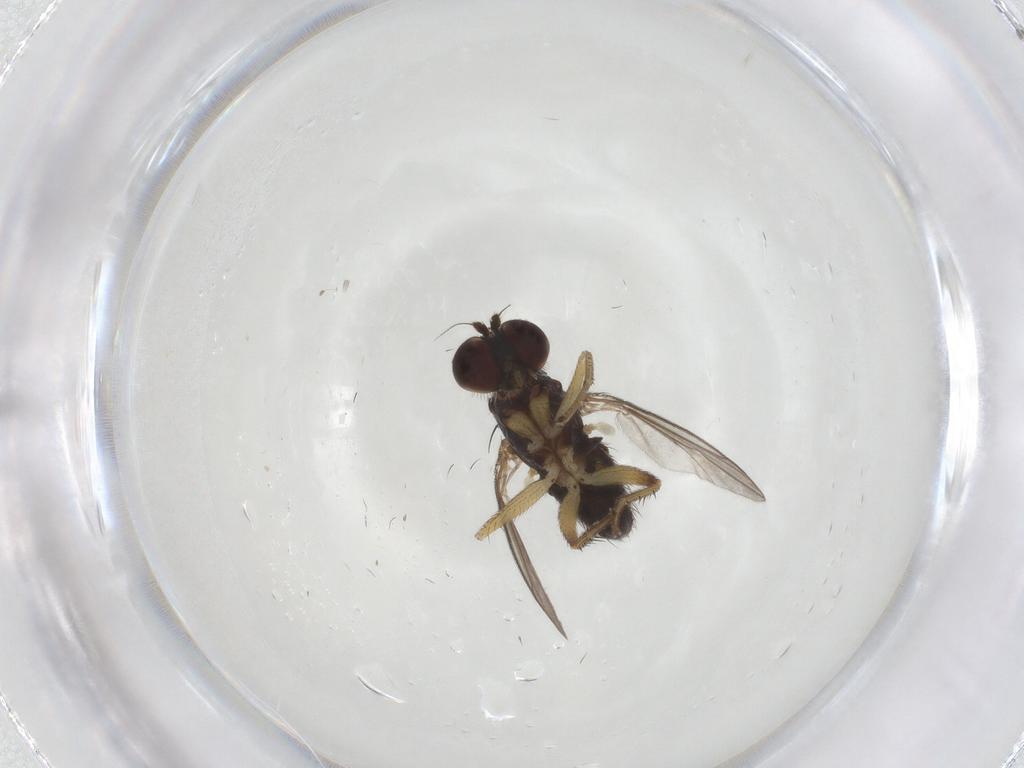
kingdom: Animalia
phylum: Arthropoda
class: Insecta
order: Diptera
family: Dolichopodidae
